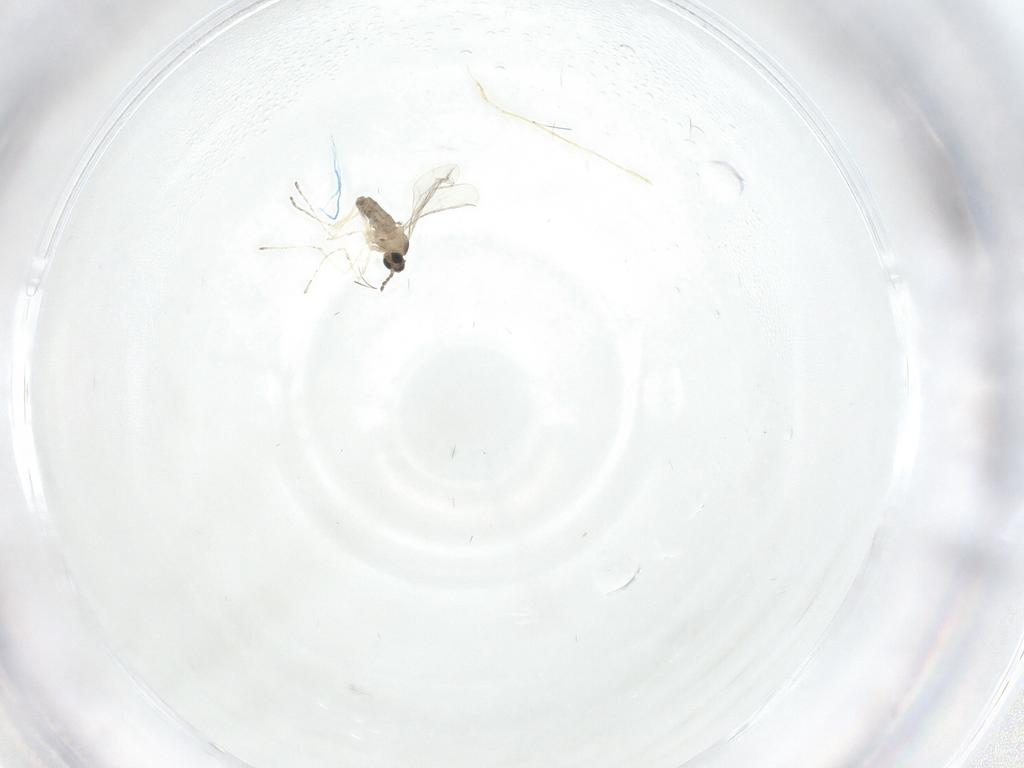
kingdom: Animalia
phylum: Arthropoda
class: Insecta
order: Diptera
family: Cecidomyiidae
